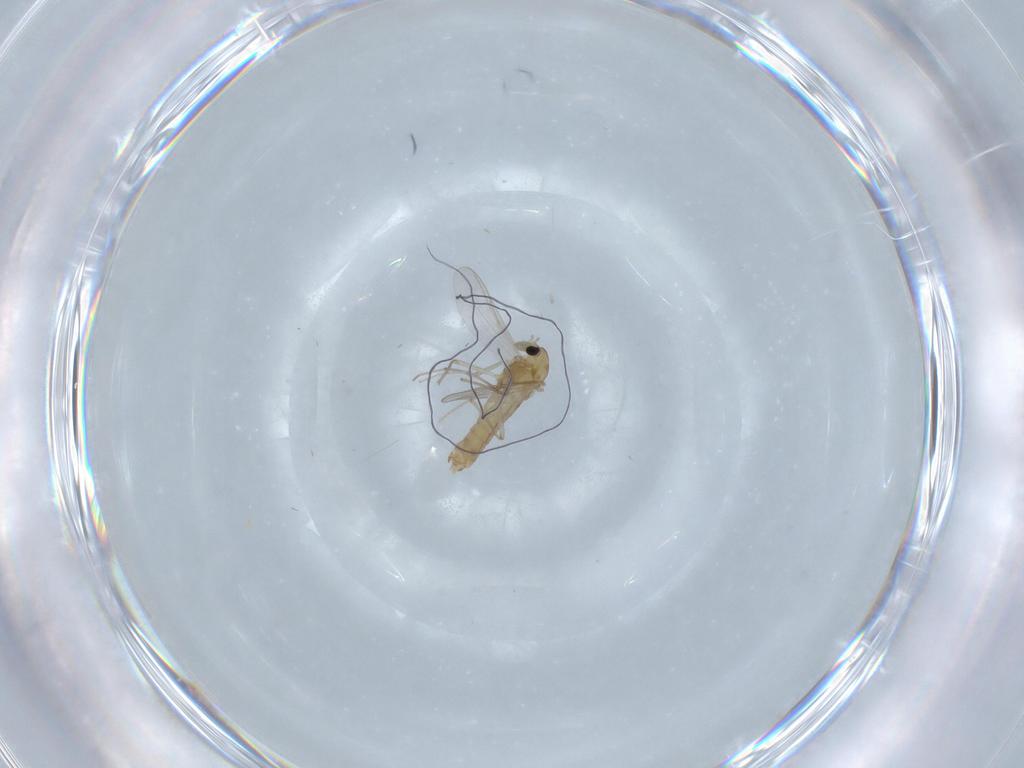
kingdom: Animalia
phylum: Arthropoda
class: Insecta
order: Diptera
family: Chironomidae
